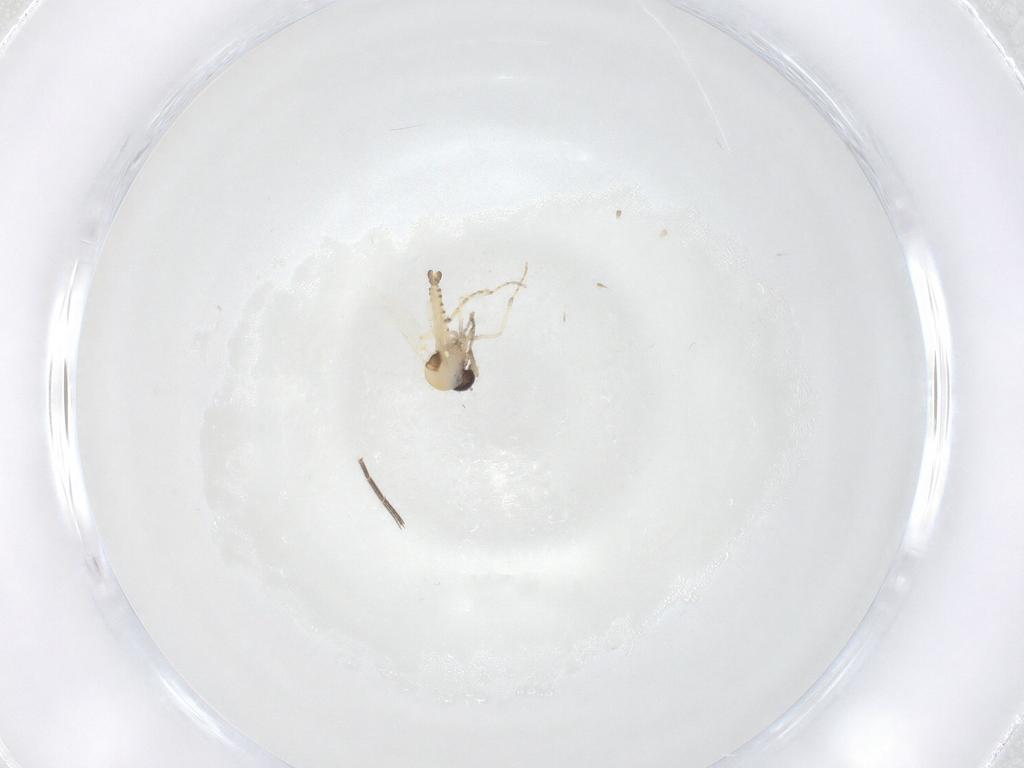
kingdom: Animalia
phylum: Arthropoda
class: Insecta
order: Diptera
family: Ceratopogonidae
